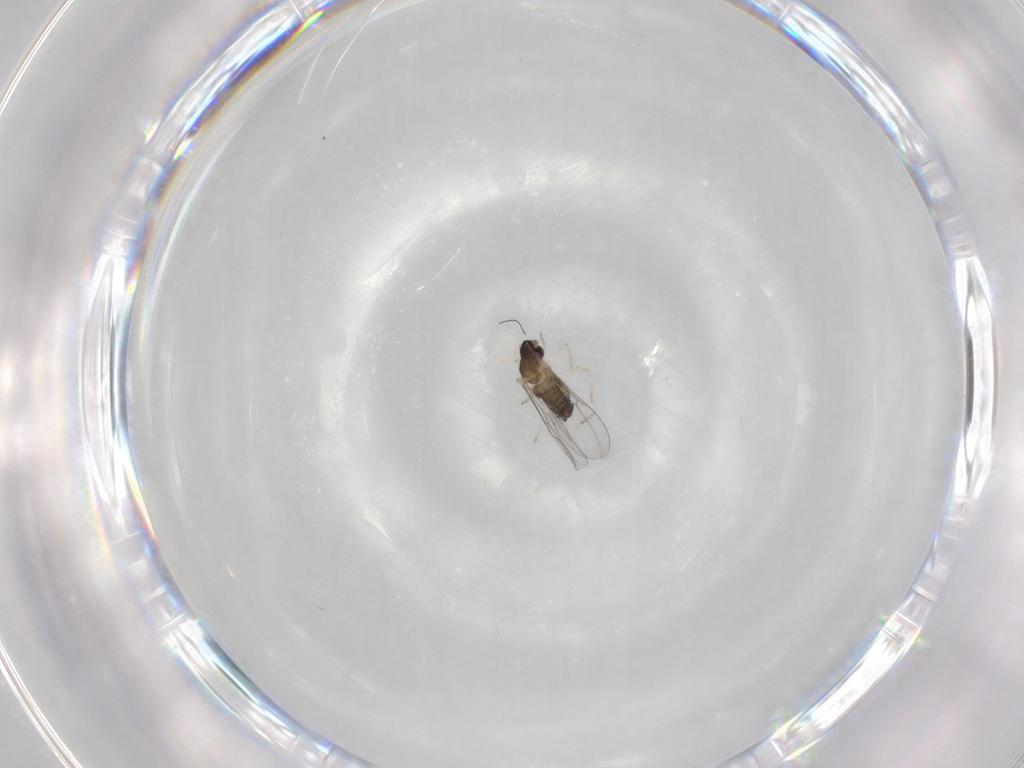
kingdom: Animalia
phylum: Arthropoda
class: Insecta
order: Diptera
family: Cecidomyiidae
